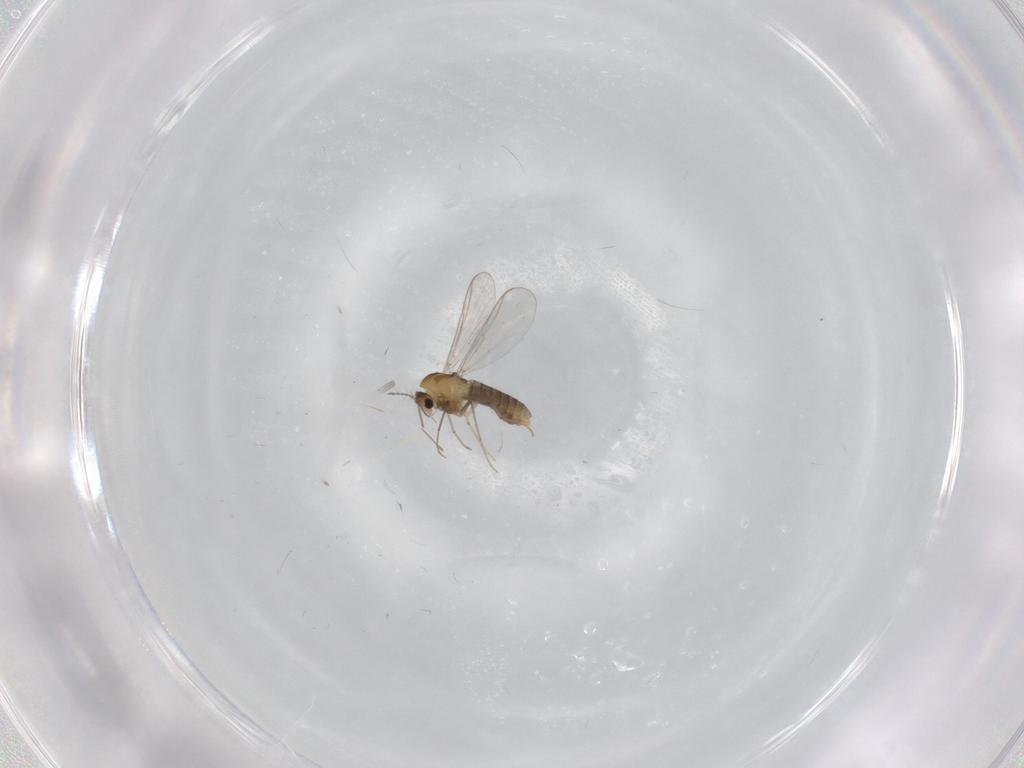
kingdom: Animalia
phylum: Arthropoda
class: Insecta
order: Diptera
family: Chironomidae
